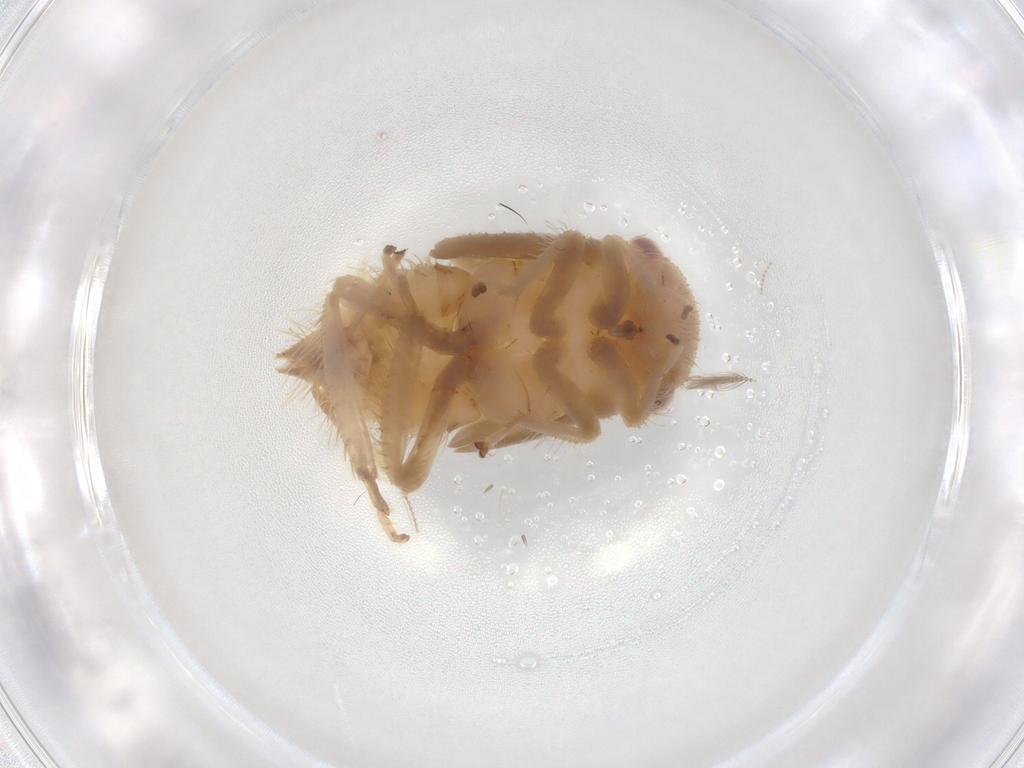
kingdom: Animalia
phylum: Arthropoda
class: Insecta
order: Hemiptera
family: Cicadellidae
